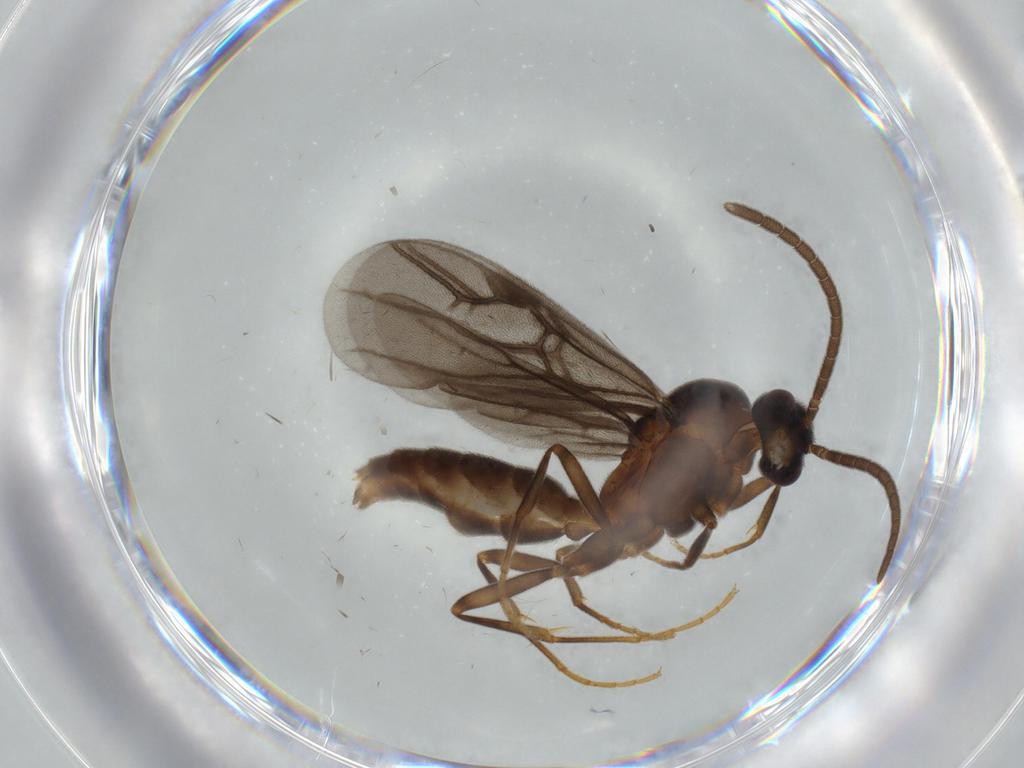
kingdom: Animalia
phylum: Arthropoda
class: Insecta
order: Hymenoptera
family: Formicidae
